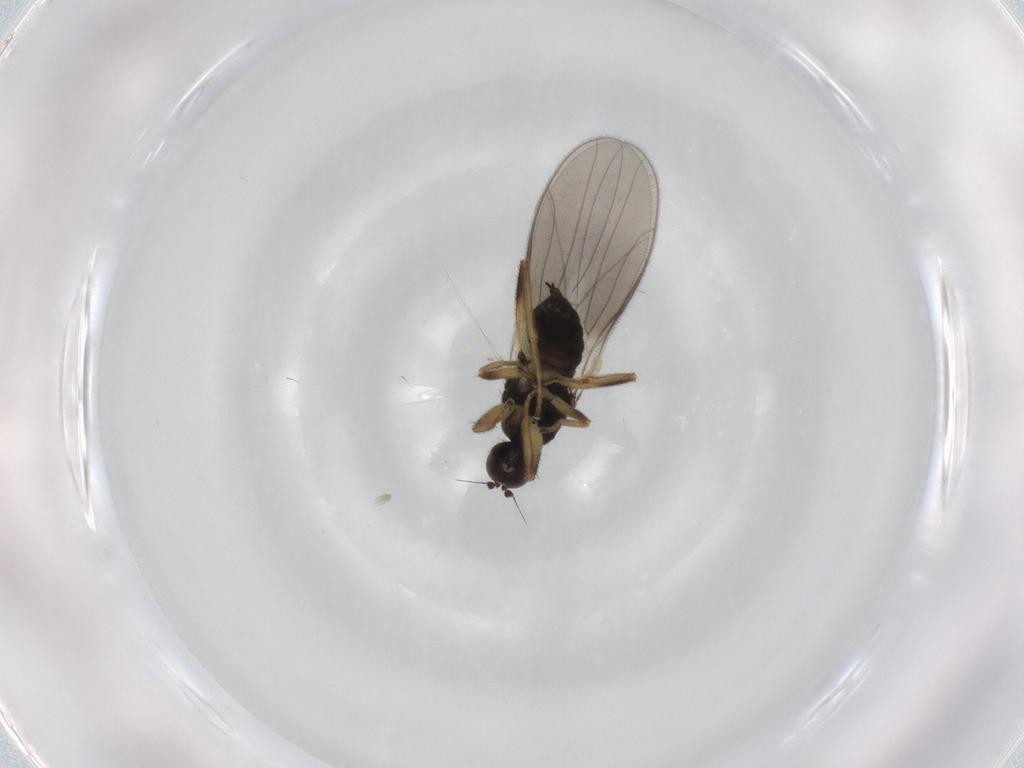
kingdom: Animalia
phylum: Arthropoda
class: Insecta
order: Diptera
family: Hybotidae
